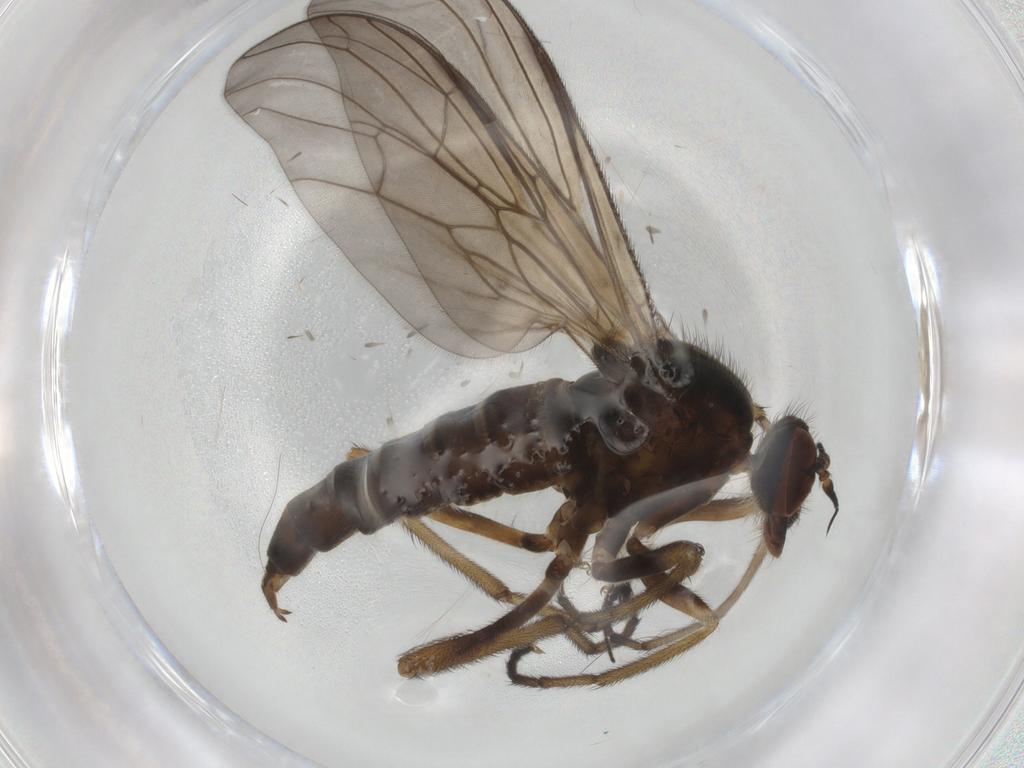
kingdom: Animalia
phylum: Arthropoda
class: Insecta
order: Diptera
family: Empididae
